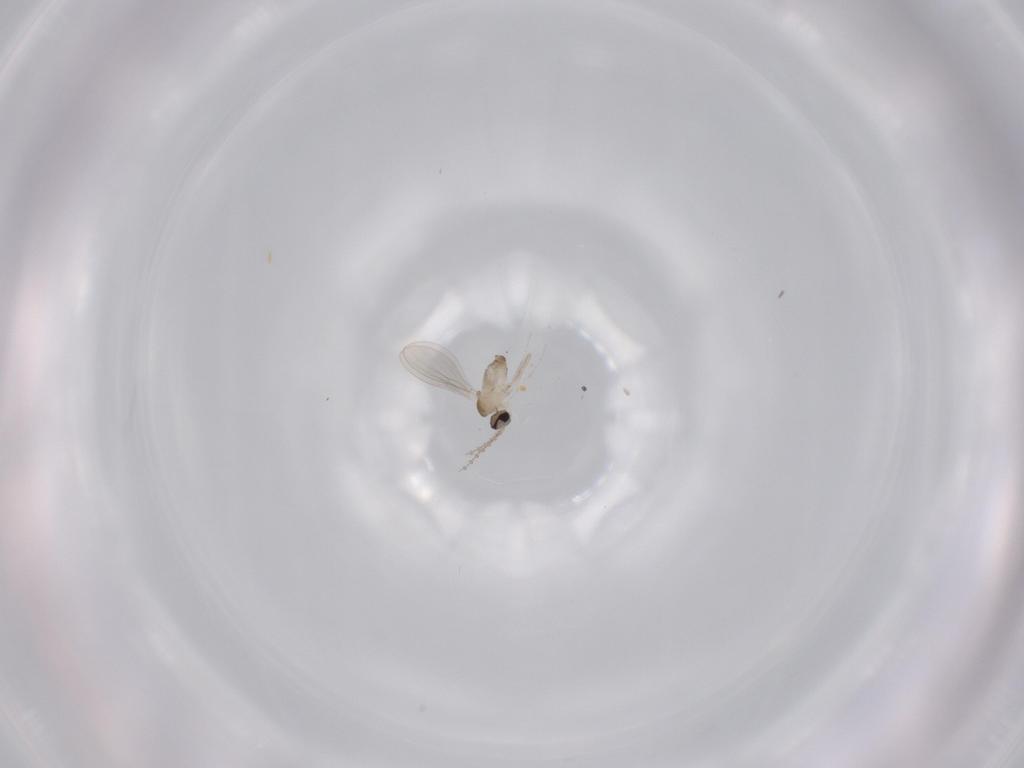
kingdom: Animalia
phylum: Arthropoda
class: Insecta
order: Diptera
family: Cecidomyiidae
